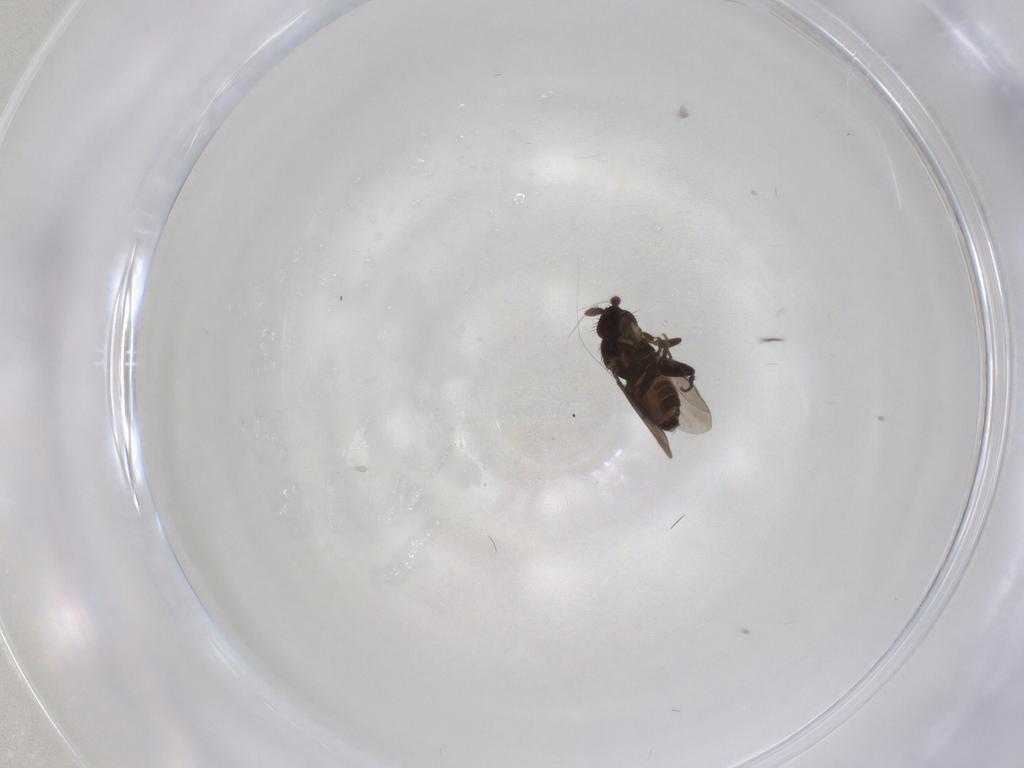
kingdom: Animalia
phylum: Arthropoda
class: Insecta
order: Diptera
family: Sphaeroceridae
